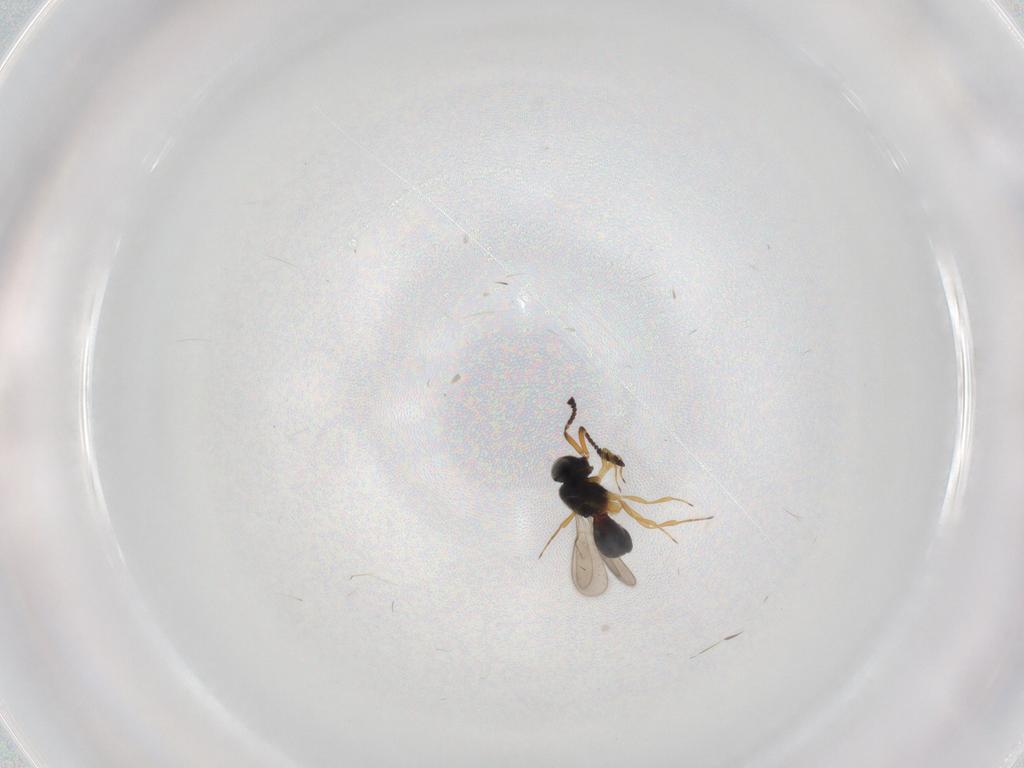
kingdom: Animalia
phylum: Arthropoda
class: Insecta
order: Hymenoptera
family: Scelionidae
